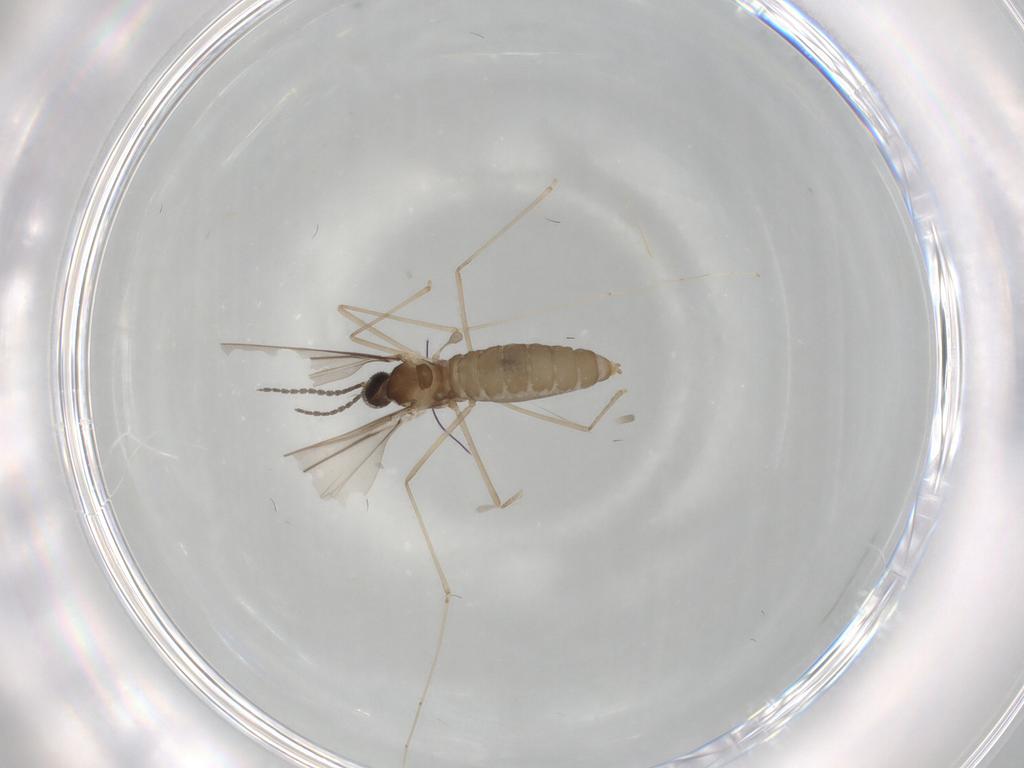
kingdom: Animalia
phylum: Arthropoda
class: Insecta
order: Diptera
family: Cecidomyiidae
